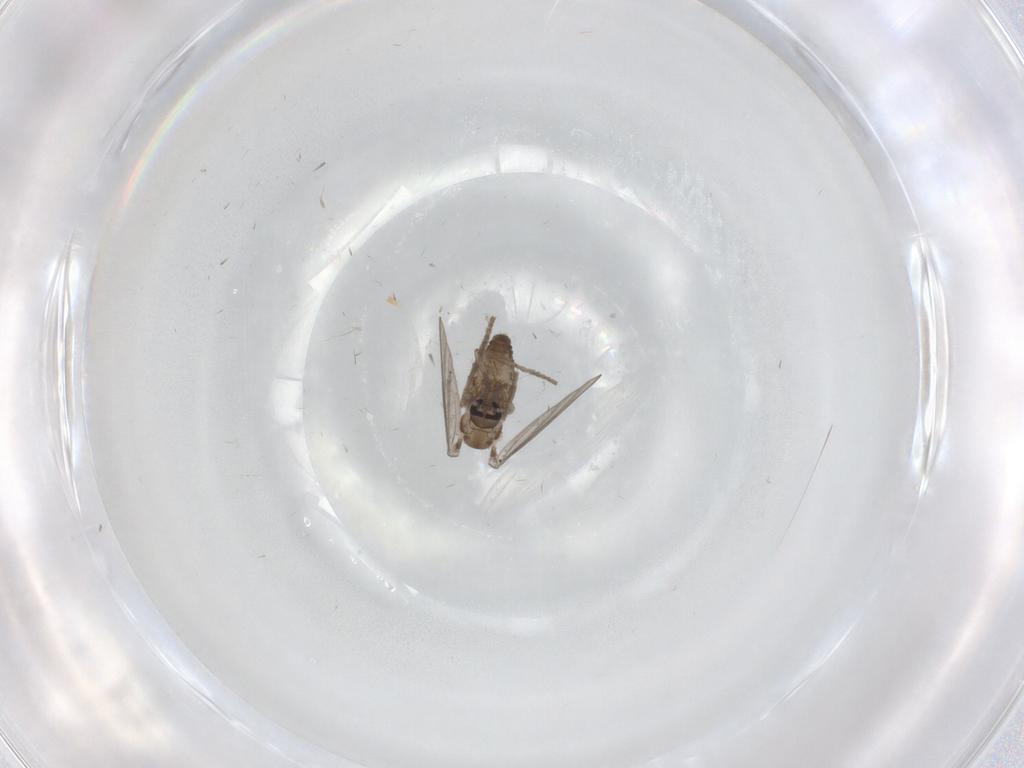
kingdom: Animalia
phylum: Arthropoda
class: Insecta
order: Diptera
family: Psychodidae
